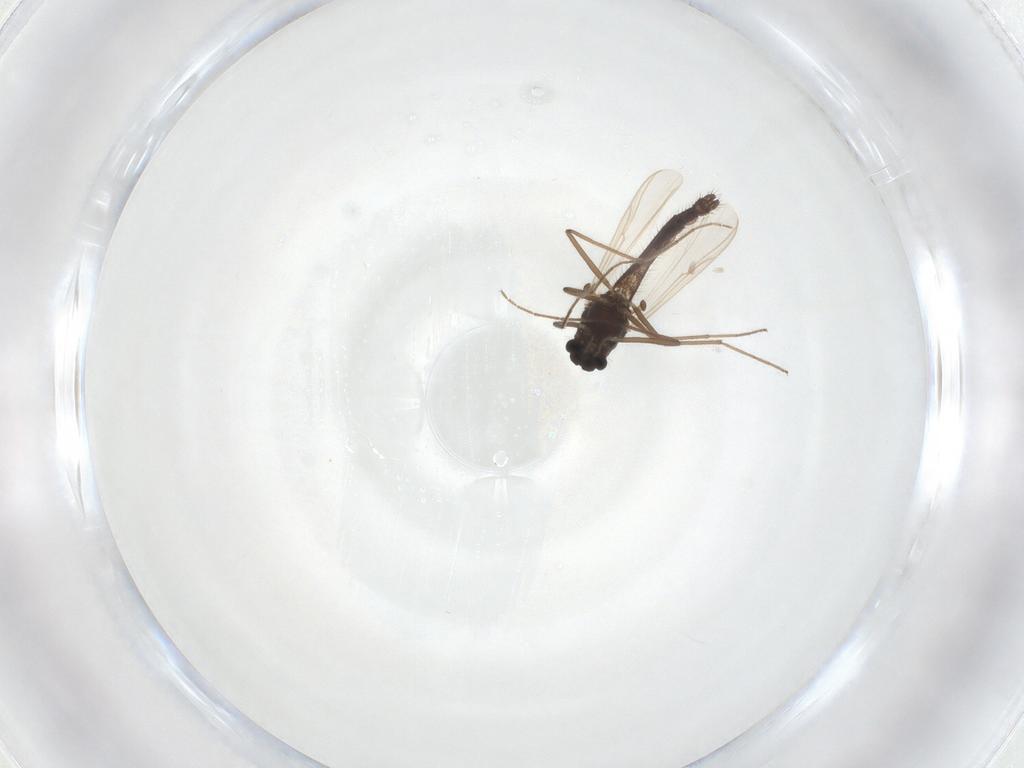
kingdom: Animalia
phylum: Arthropoda
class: Insecta
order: Diptera
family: Chironomidae
